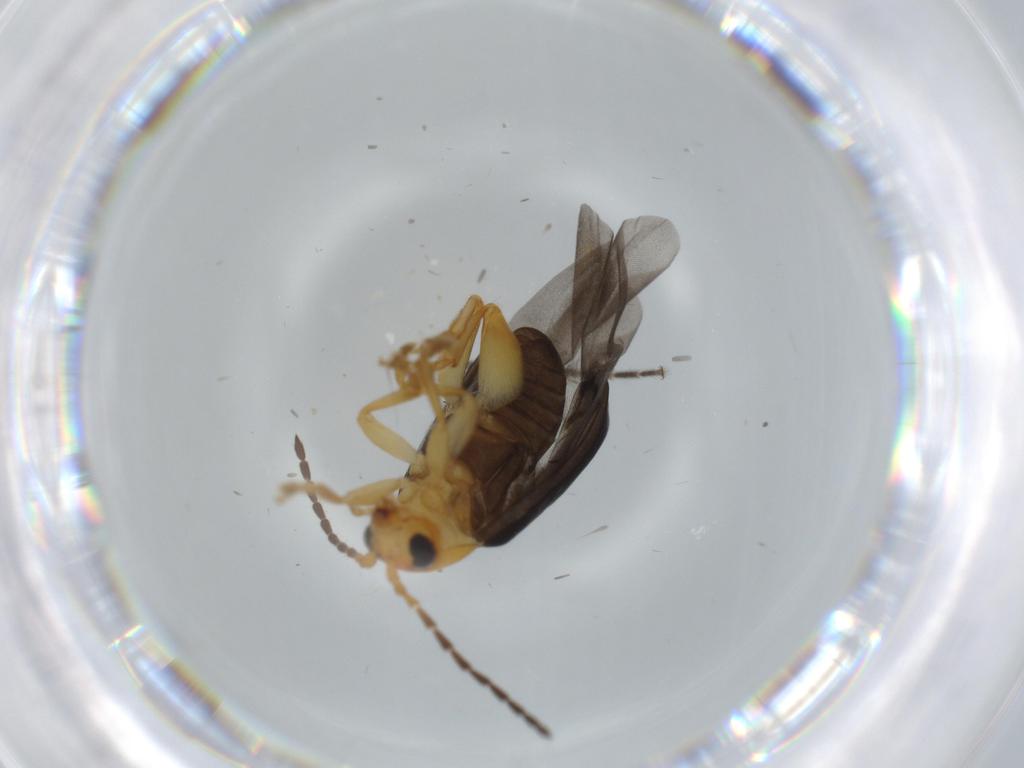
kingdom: Animalia
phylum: Arthropoda
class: Insecta
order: Coleoptera
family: Chrysomelidae
